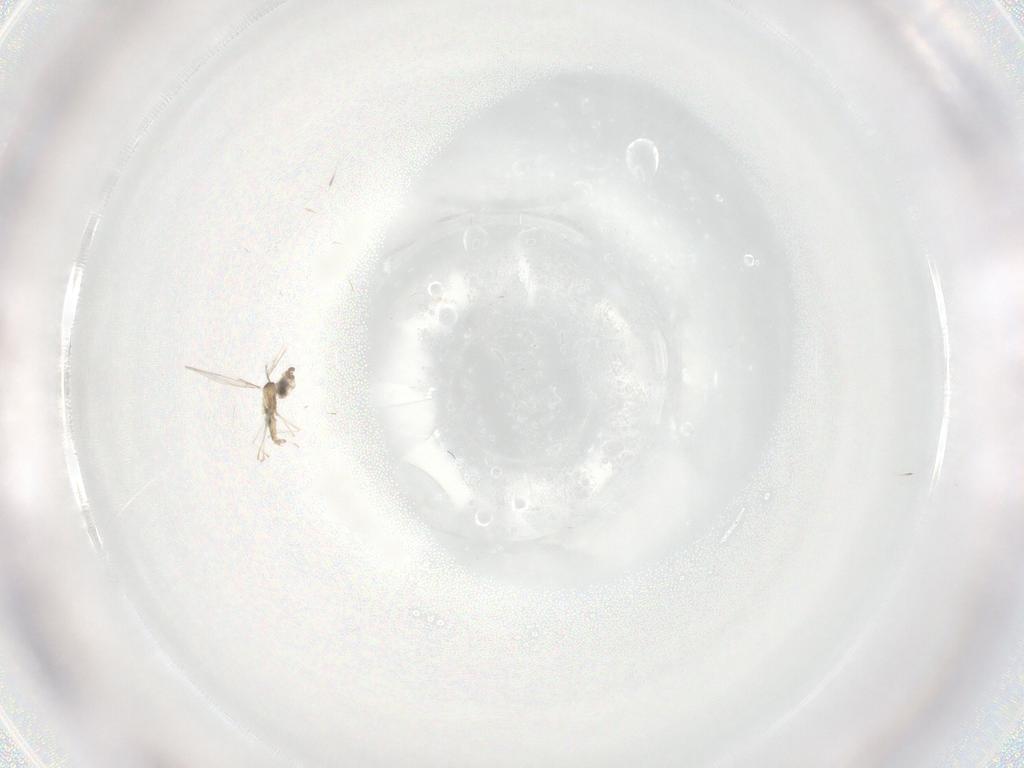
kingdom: Animalia
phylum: Arthropoda
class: Insecta
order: Diptera
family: Cecidomyiidae
